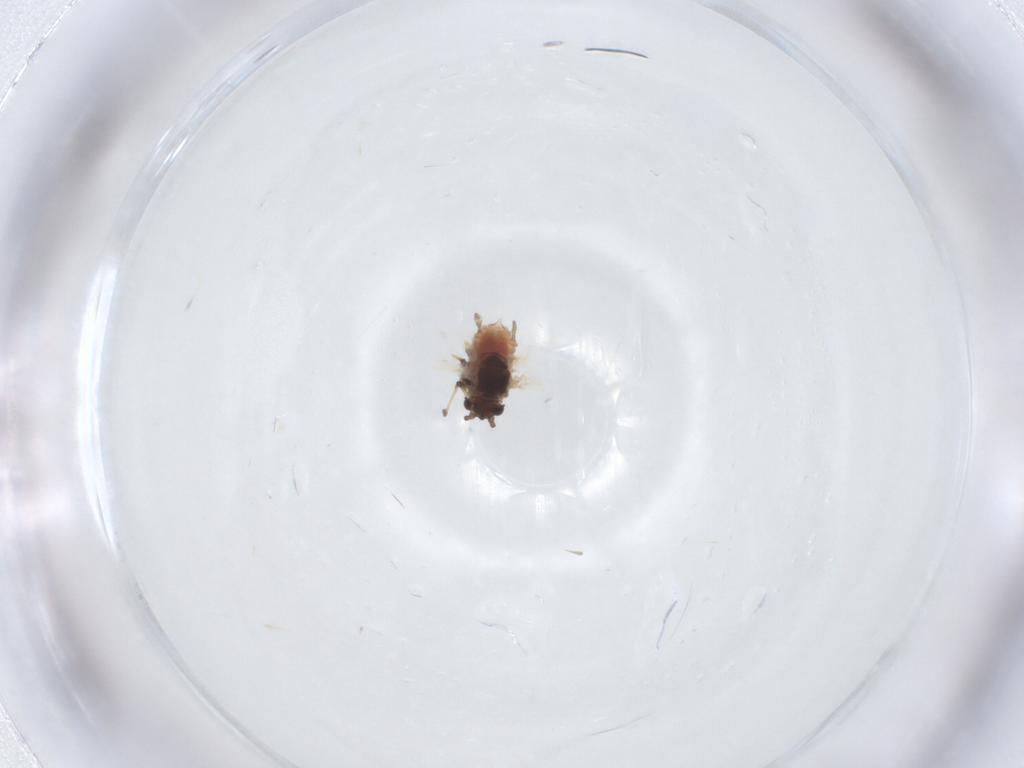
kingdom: Animalia
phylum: Arthropoda
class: Insecta
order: Hemiptera
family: Aphididae
